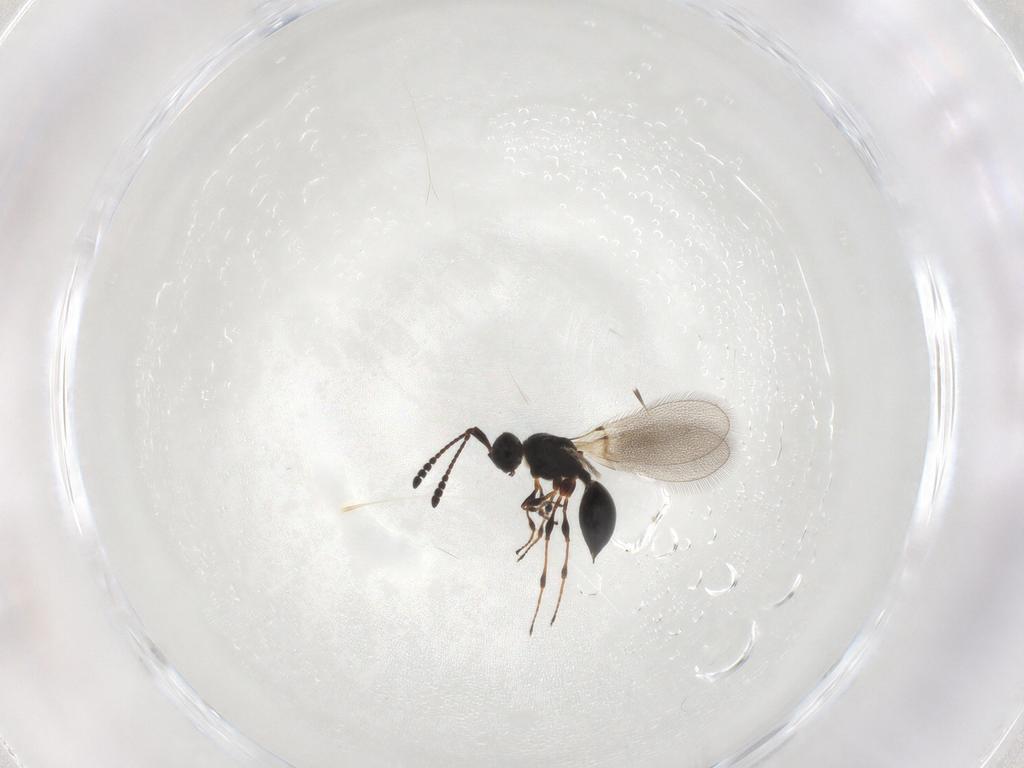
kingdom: Animalia
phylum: Arthropoda
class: Insecta
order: Hymenoptera
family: Diapriidae
